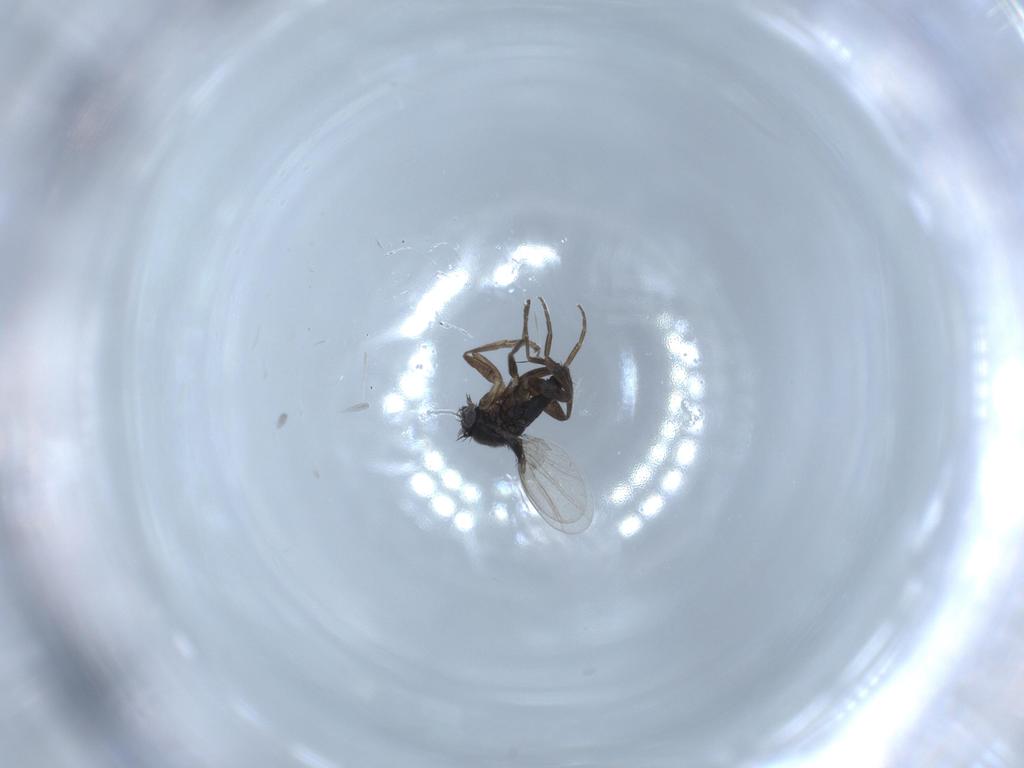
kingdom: Animalia
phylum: Arthropoda
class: Insecta
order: Diptera
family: Phoridae
